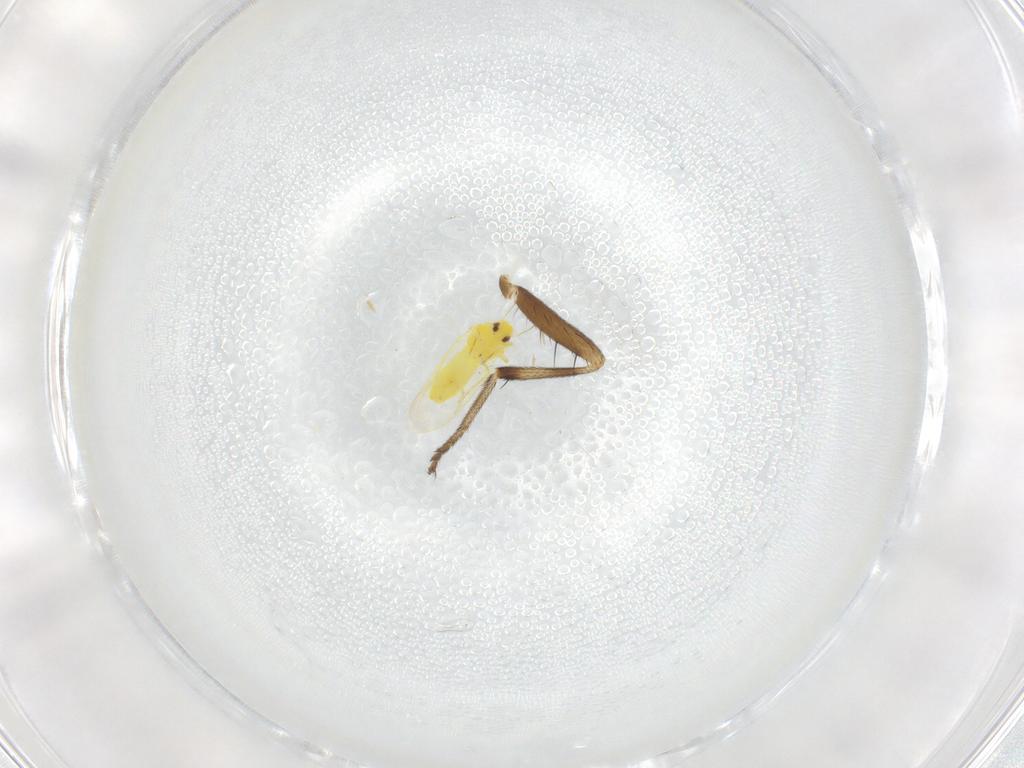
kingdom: Animalia
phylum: Arthropoda
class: Insecta
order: Hemiptera
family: Aleyrodidae
